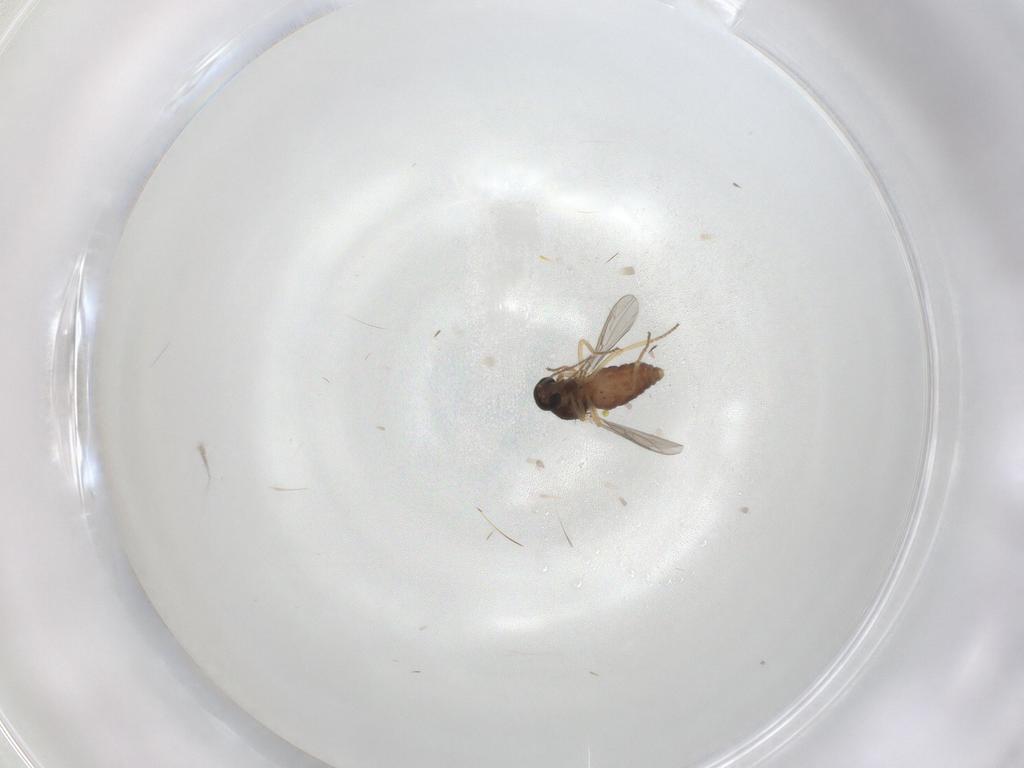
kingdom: Animalia
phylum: Arthropoda
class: Insecta
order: Diptera
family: Ceratopogonidae
